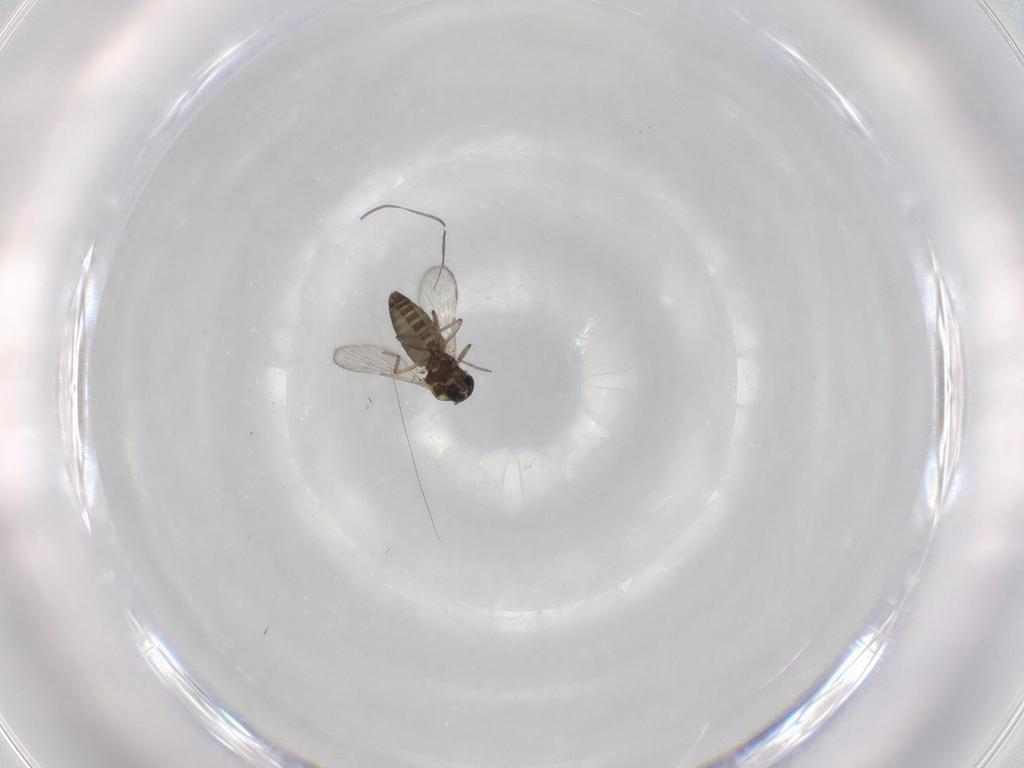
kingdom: Animalia
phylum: Arthropoda
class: Insecta
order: Diptera
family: Ceratopogonidae
